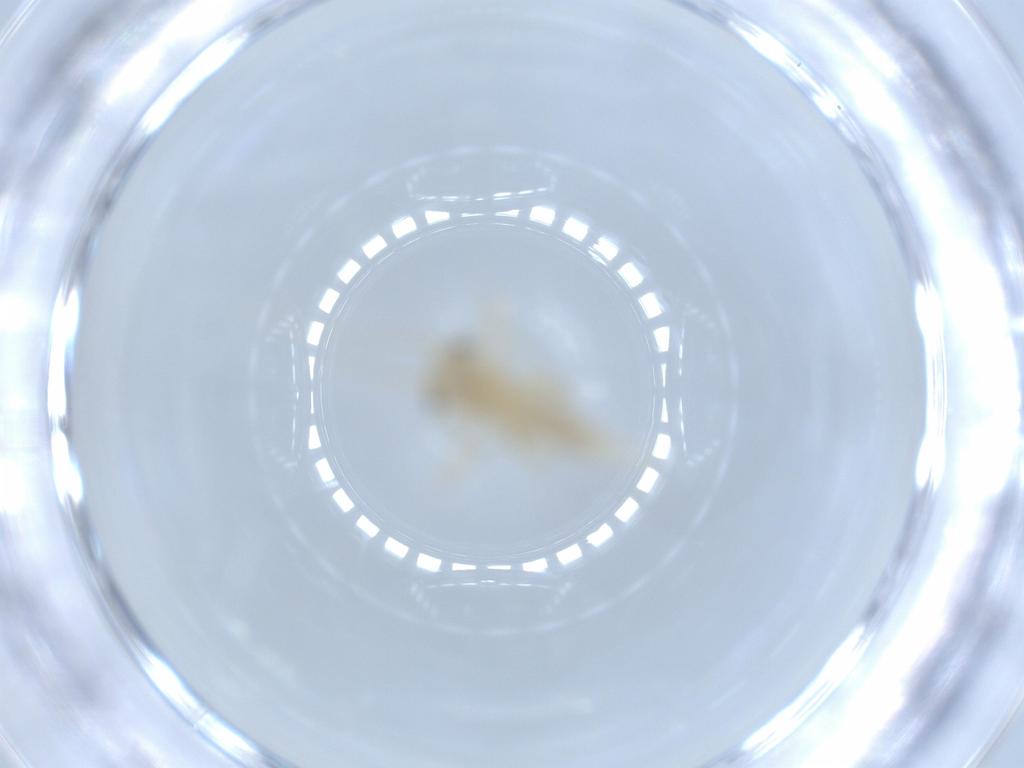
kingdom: Animalia
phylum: Arthropoda
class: Insecta
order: Orthoptera
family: Trigonidiidae
